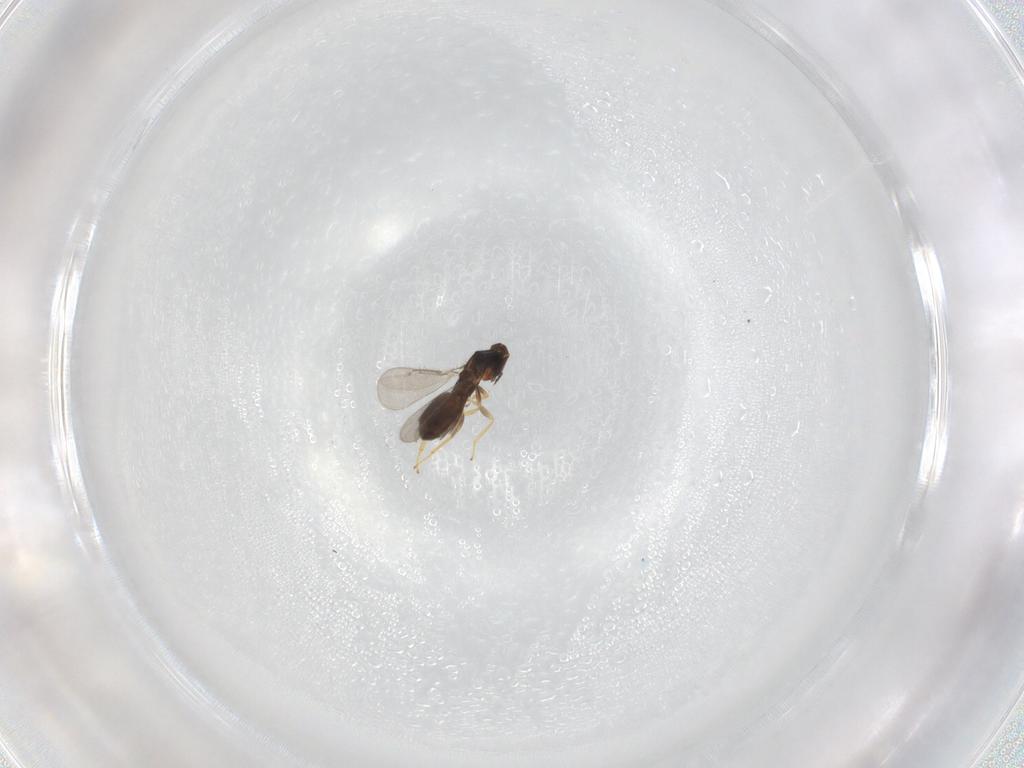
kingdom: Animalia
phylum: Arthropoda
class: Insecta
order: Hymenoptera
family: Eulophidae
